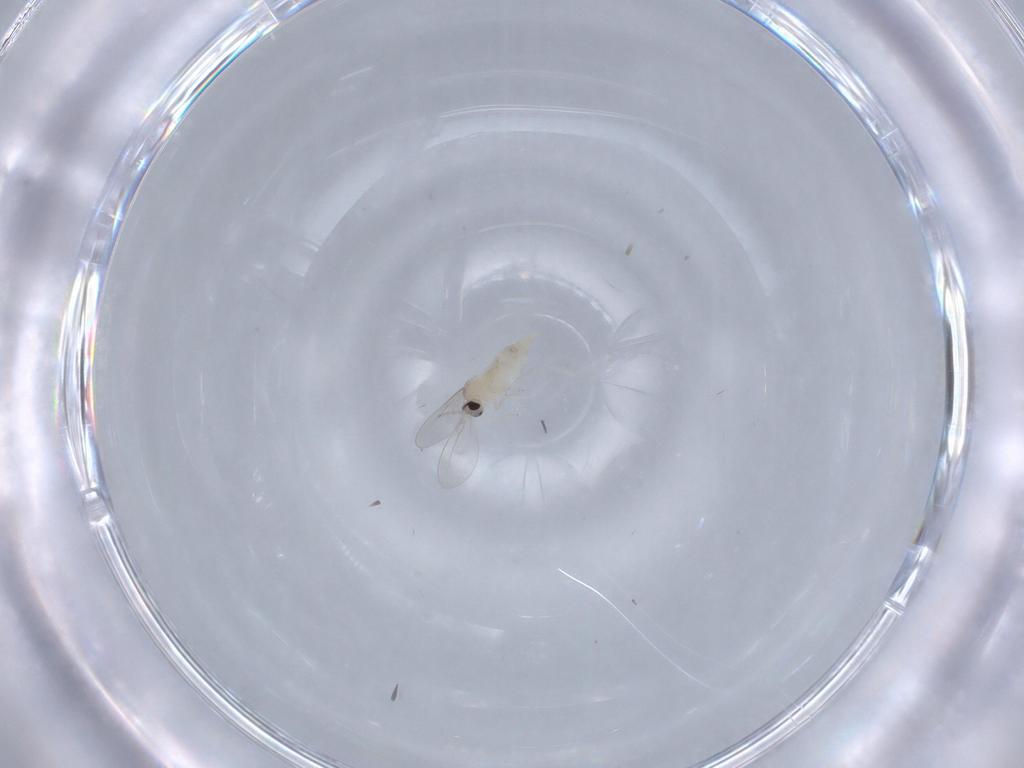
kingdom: Animalia
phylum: Arthropoda
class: Insecta
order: Diptera
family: Cecidomyiidae
